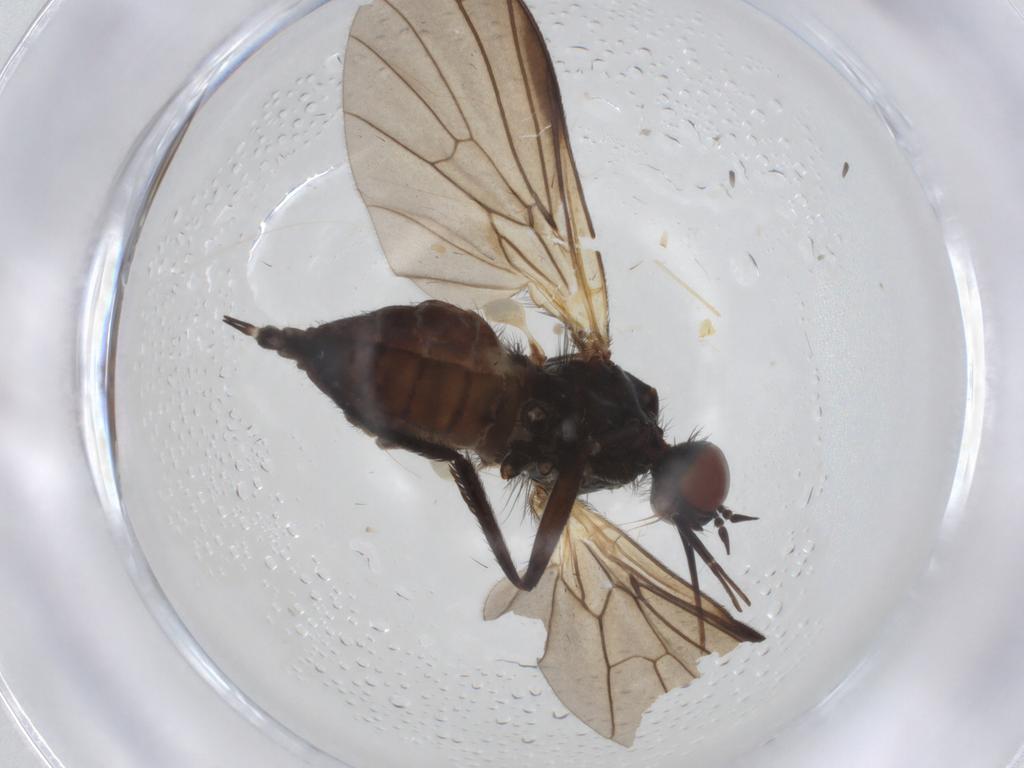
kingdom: Animalia
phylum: Arthropoda
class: Insecta
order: Diptera
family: Empididae
